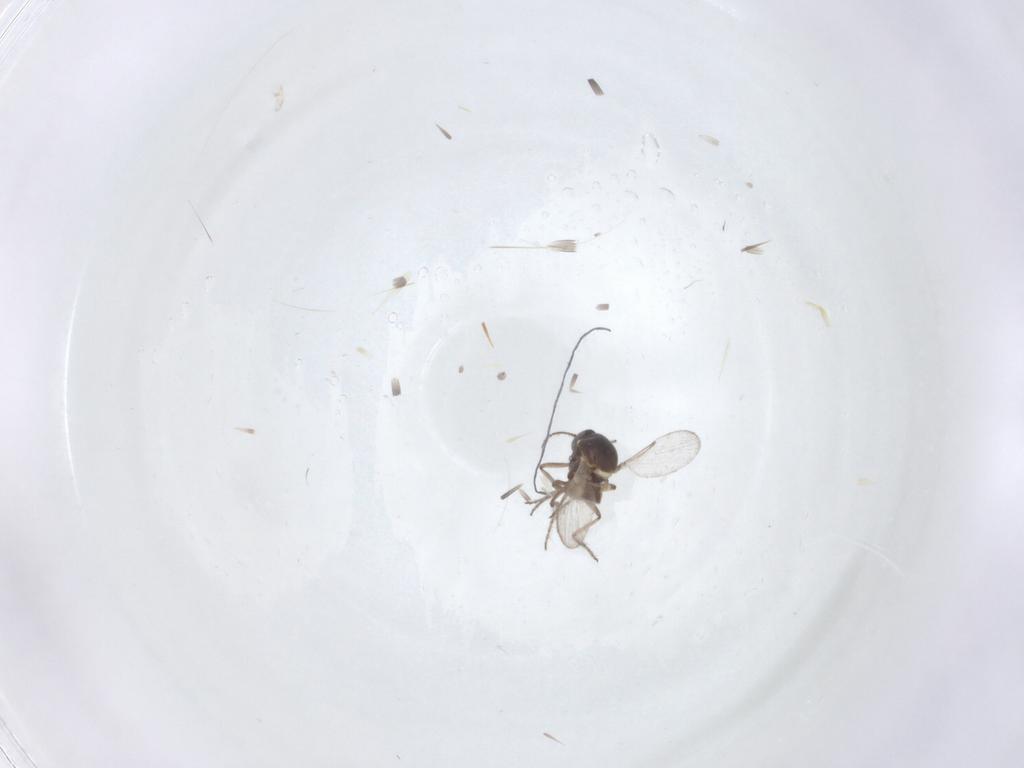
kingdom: Animalia
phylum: Arthropoda
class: Insecta
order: Diptera
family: Ceratopogonidae
